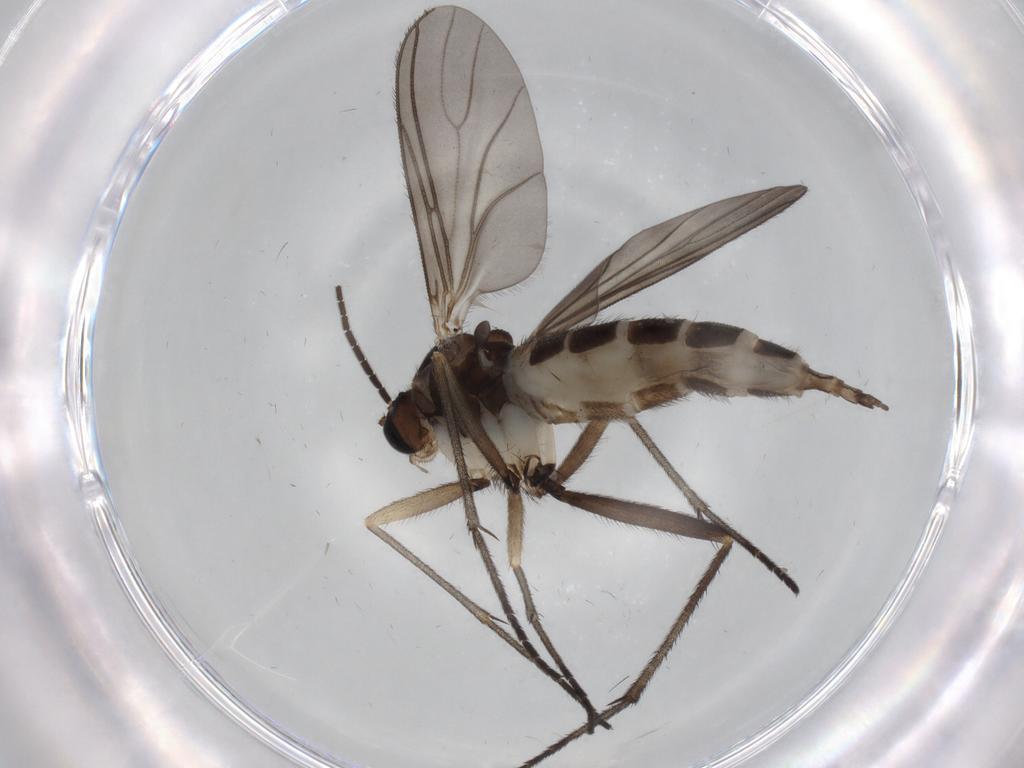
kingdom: Animalia
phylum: Arthropoda
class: Insecta
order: Diptera
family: Sciaridae
